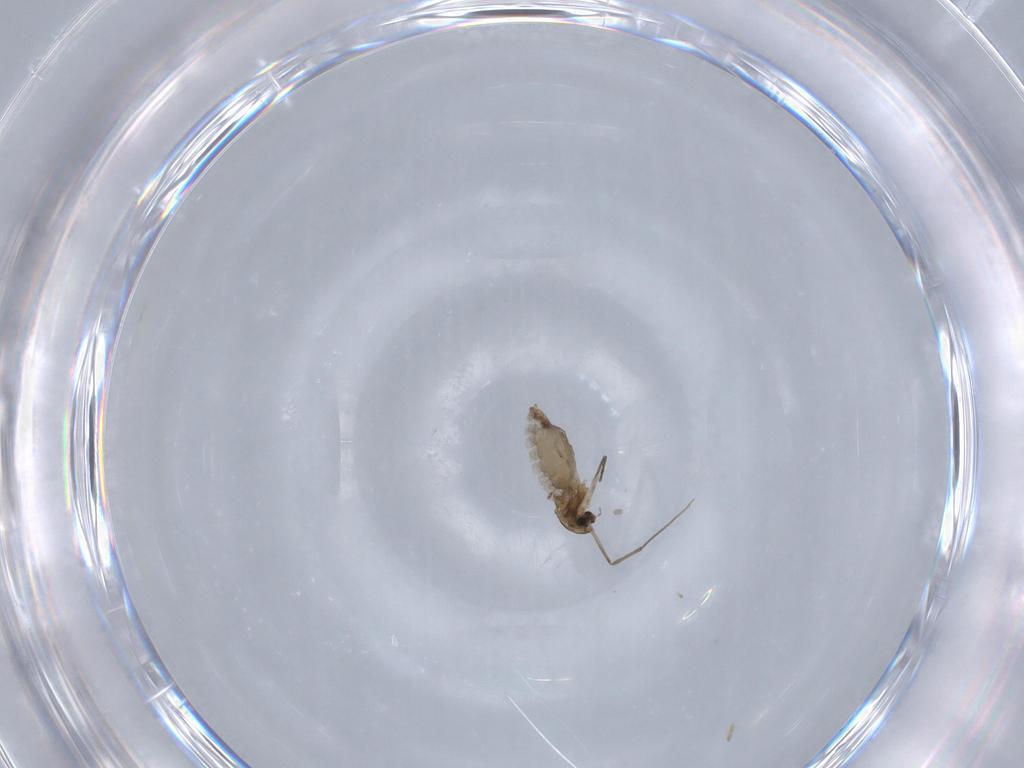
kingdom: Animalia
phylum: Arthropoda
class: Insecta
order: Diptera
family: Chironomidae
